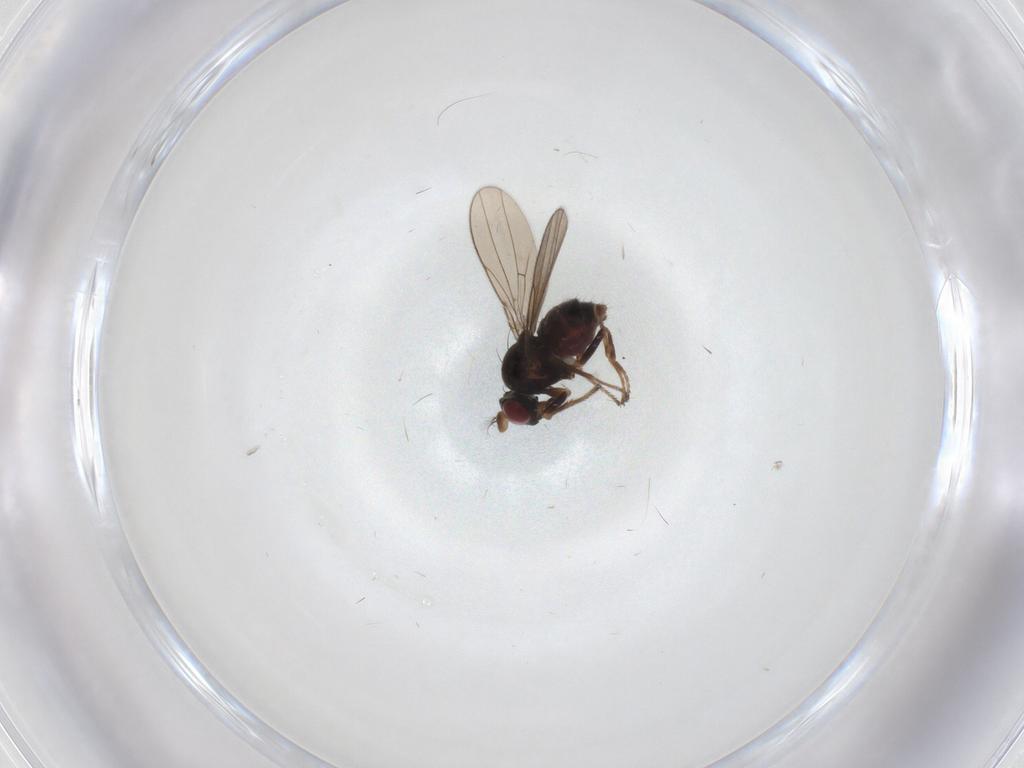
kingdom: Animalia
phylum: Arthropoda
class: Insecta
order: Diptera
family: Ephydridae
